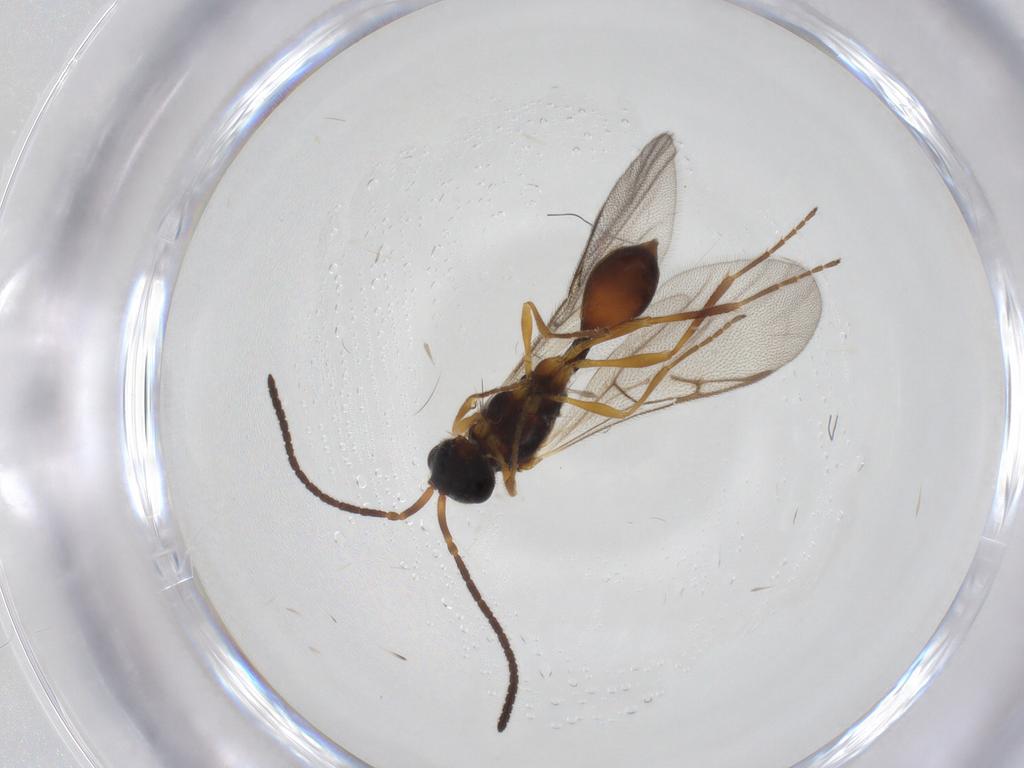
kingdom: Animalia
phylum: Arthropoda
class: Insecta
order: Hymenoptera
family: Diapriidae
